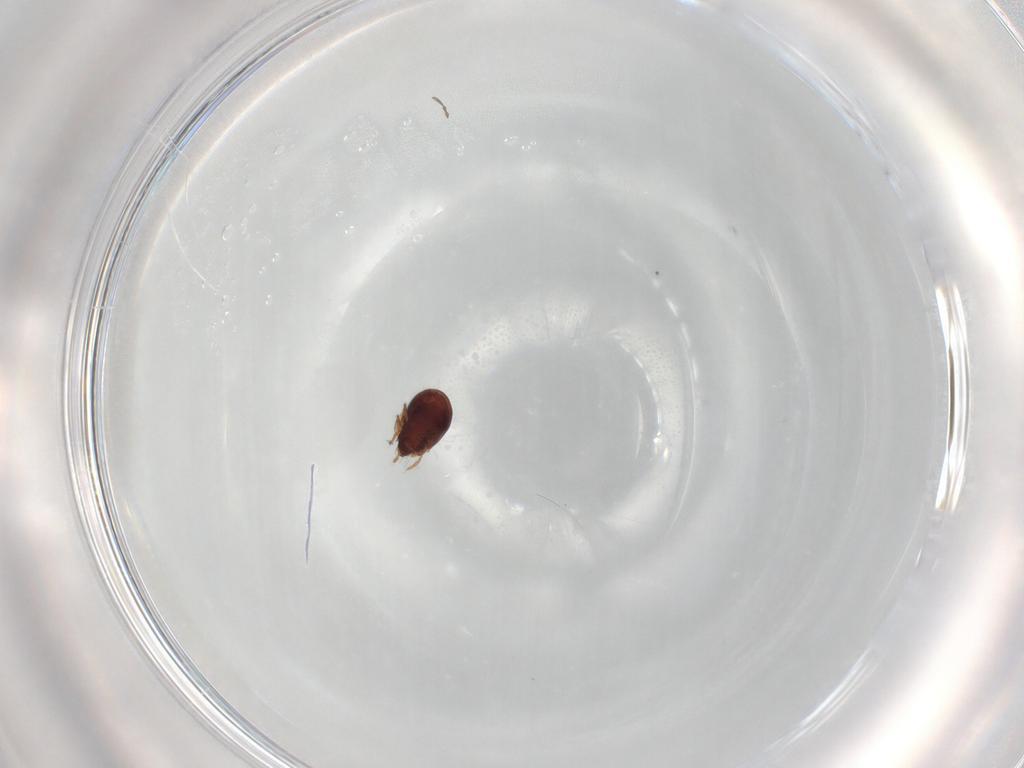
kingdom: Animalia
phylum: Arthropoda
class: Arachnida
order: Sarcoptiformes
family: Humerobatidae
